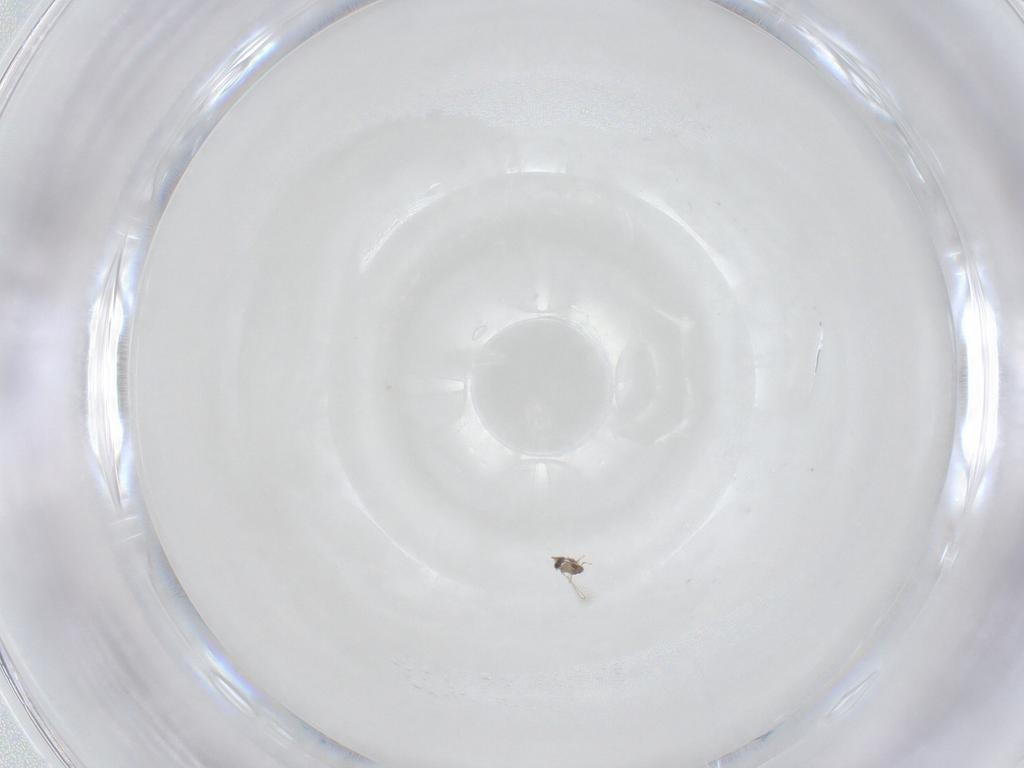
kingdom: Animalia
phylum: Arthropoda
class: Insecta
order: Hymenoptera
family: Mymaridae
